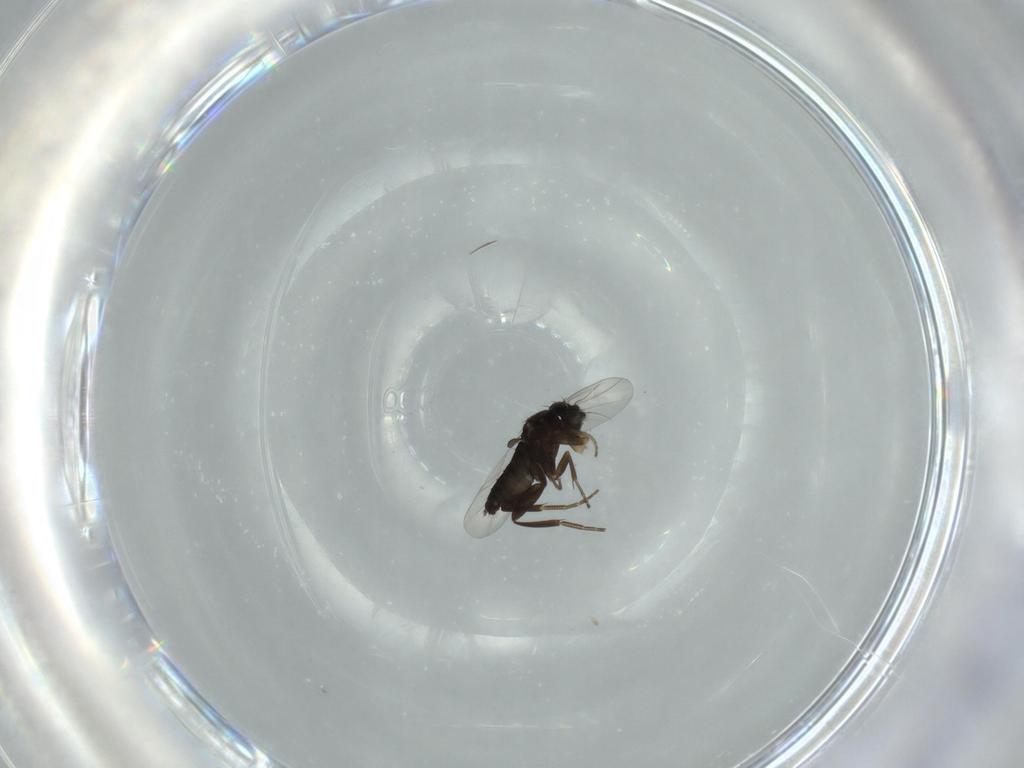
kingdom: Animalia
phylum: Arthropoda
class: Insecta
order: Diptera
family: Phoridae
